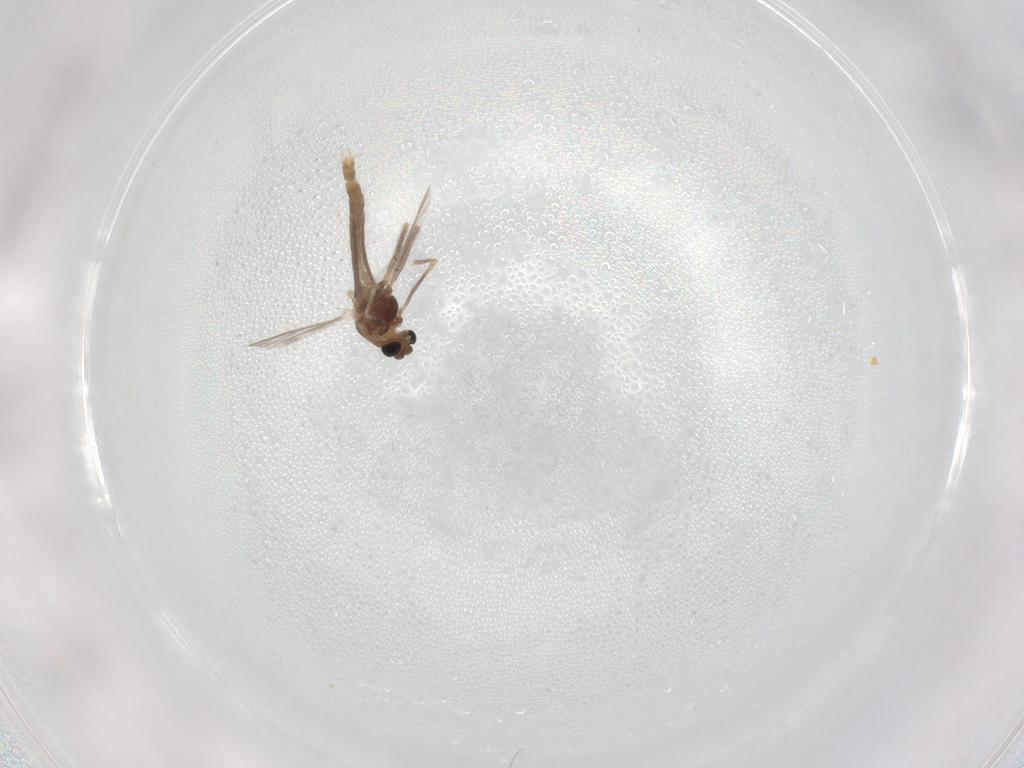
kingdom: Animalia
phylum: Arthropoda
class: Insecta
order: Diptera
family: Chironomidae
